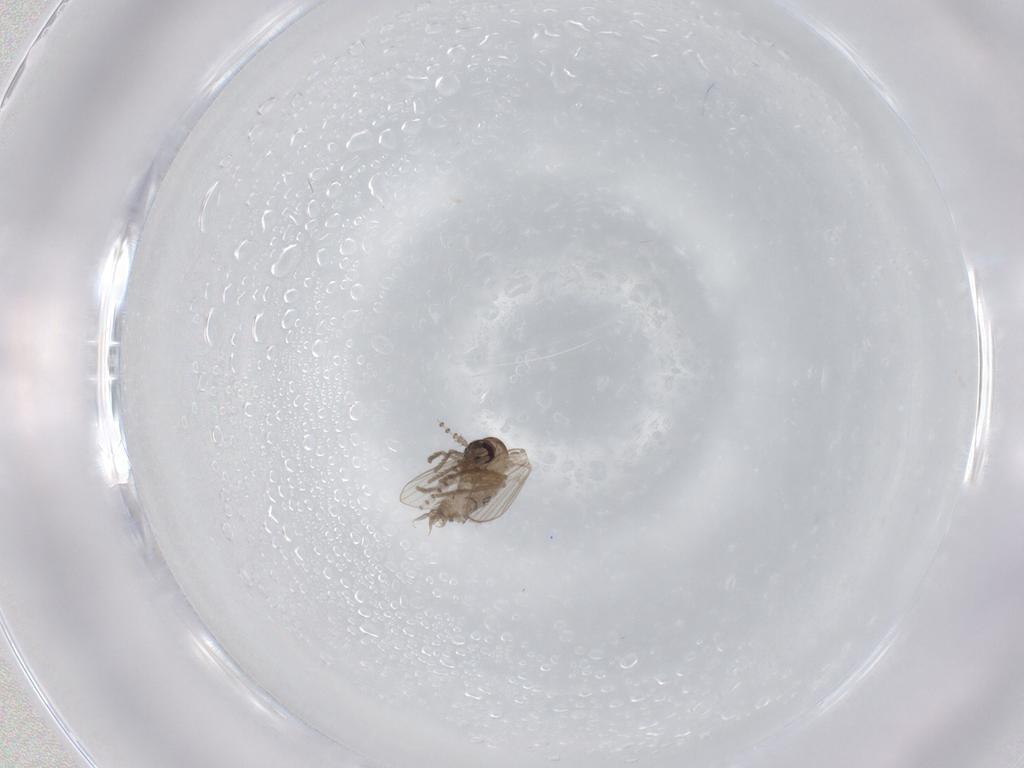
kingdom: Animalia
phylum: Arthropoda
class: Insecta
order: Diptera
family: Psychodidae
